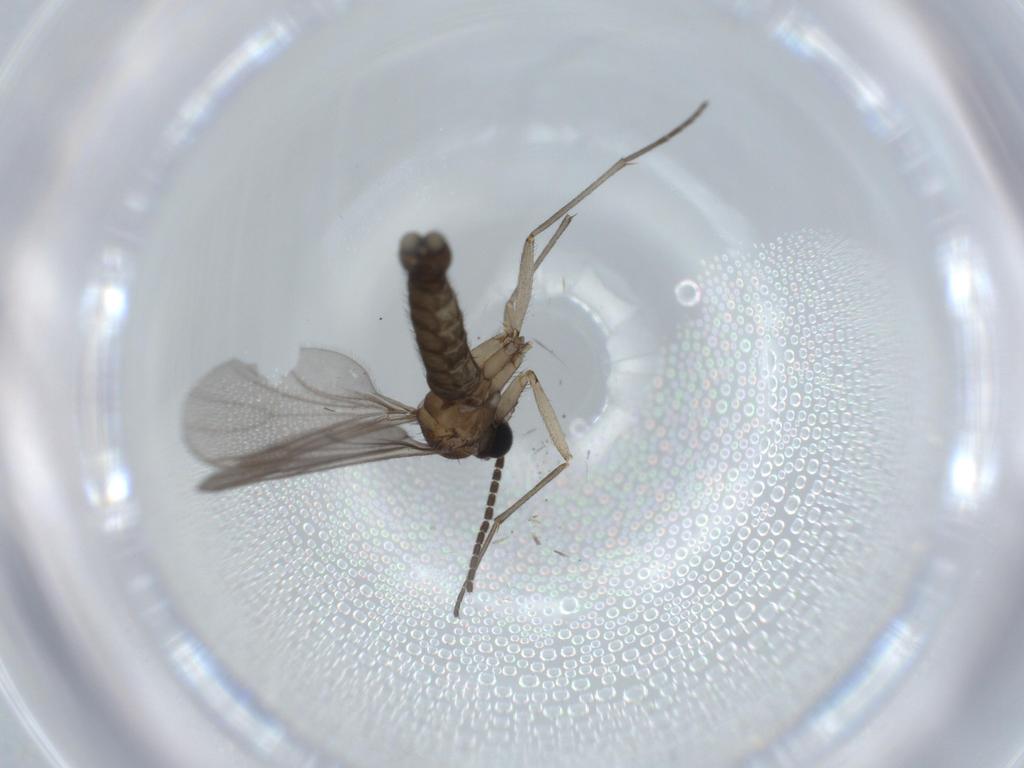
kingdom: Animalia
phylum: Arthropoda
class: Insecta
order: Diptera
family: Sciaridae
